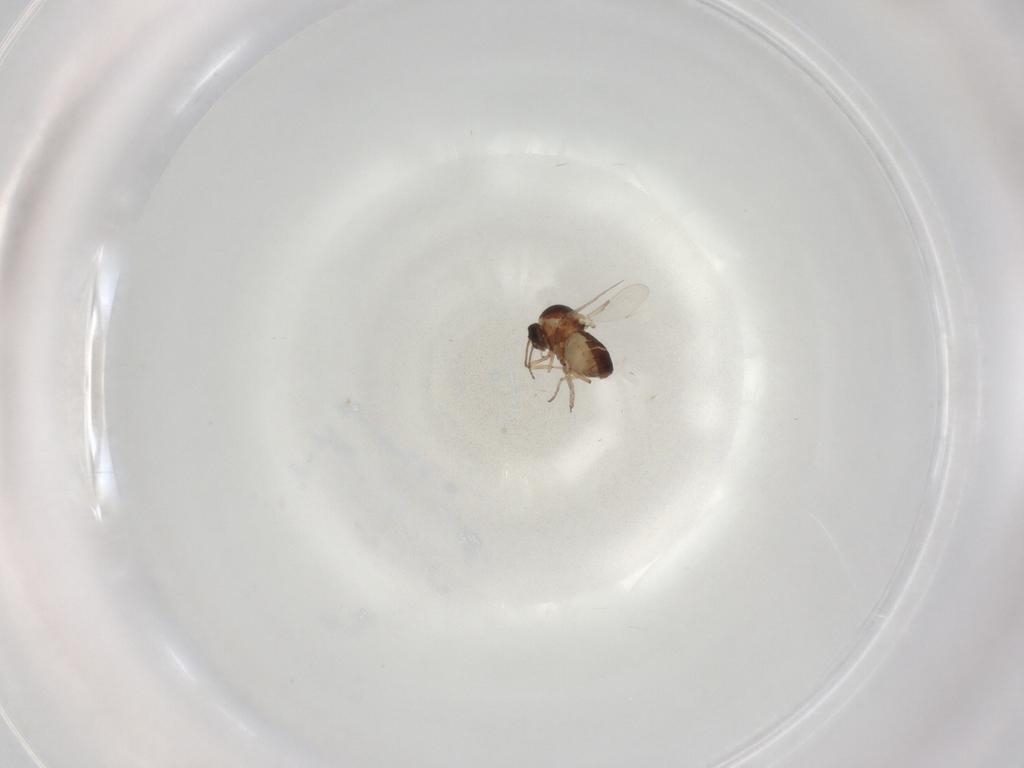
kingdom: Animalia
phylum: Arthropoda
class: Insecta
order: Diptera
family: Ceratopogonidae
